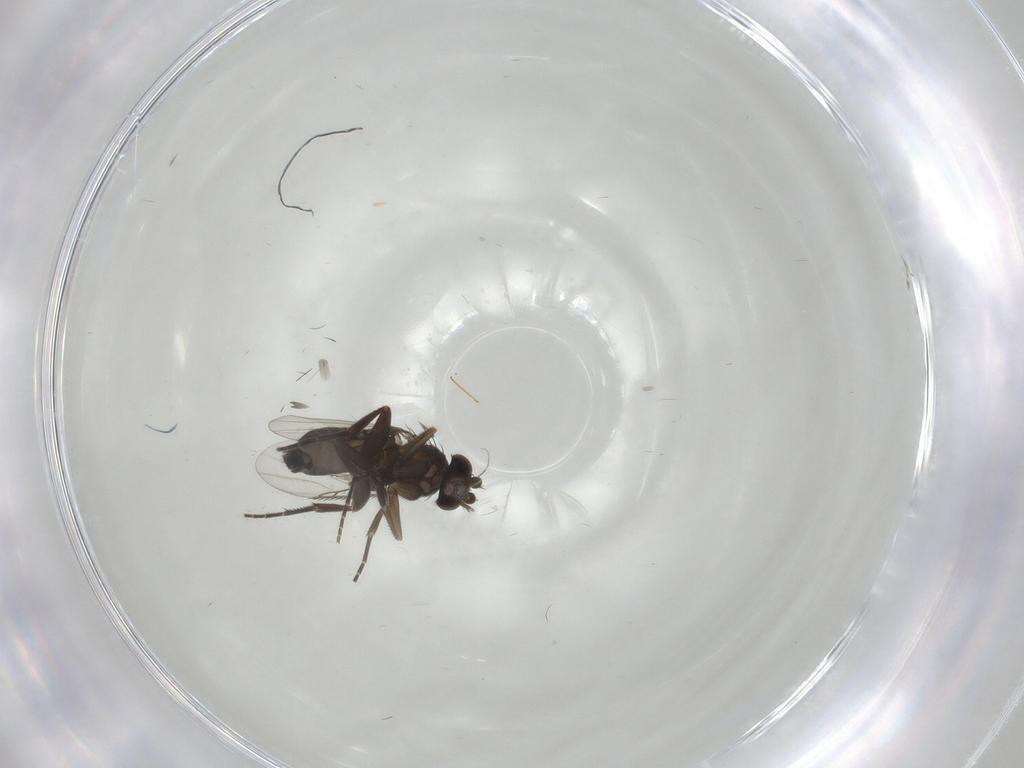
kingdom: Animalia
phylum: Arthropoda
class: Insecta
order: Diptera
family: Phoridae
